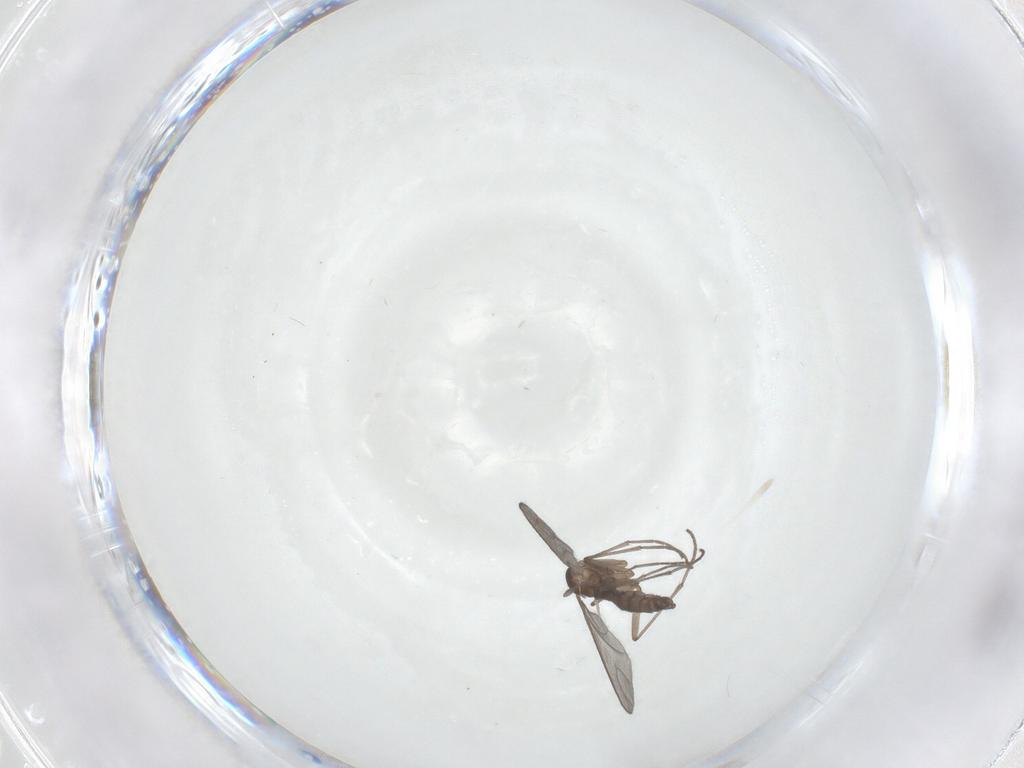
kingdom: Animalia
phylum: Arthropoda
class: Insecta
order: Diptera
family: Sciaridae
